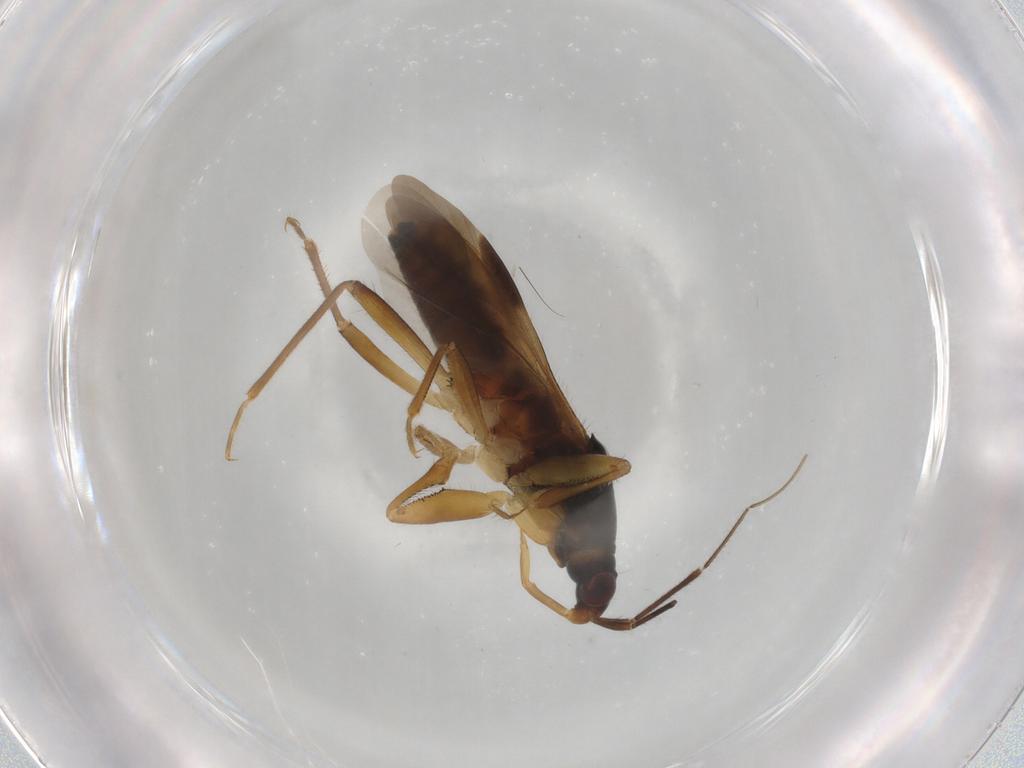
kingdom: Animalia
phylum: Arthropoda
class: Insecta
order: Hemiptera
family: Nabidae
